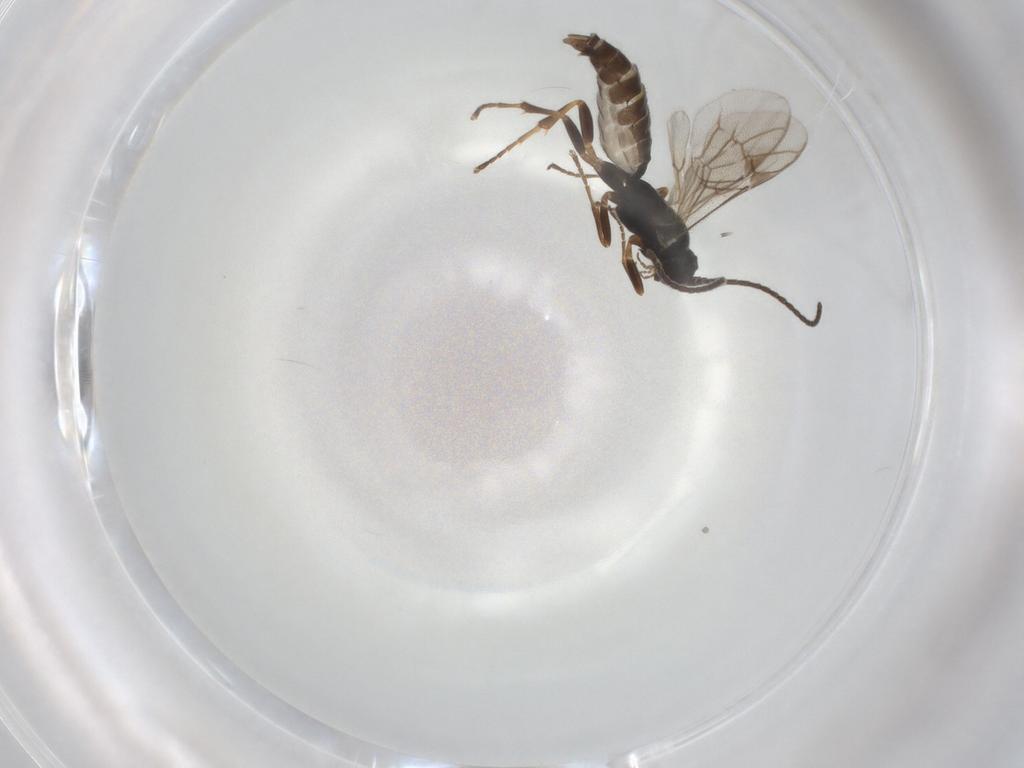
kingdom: Animalia
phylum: Arthropoda
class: Insecta
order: Hymenoptera
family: Ichneumonidae
